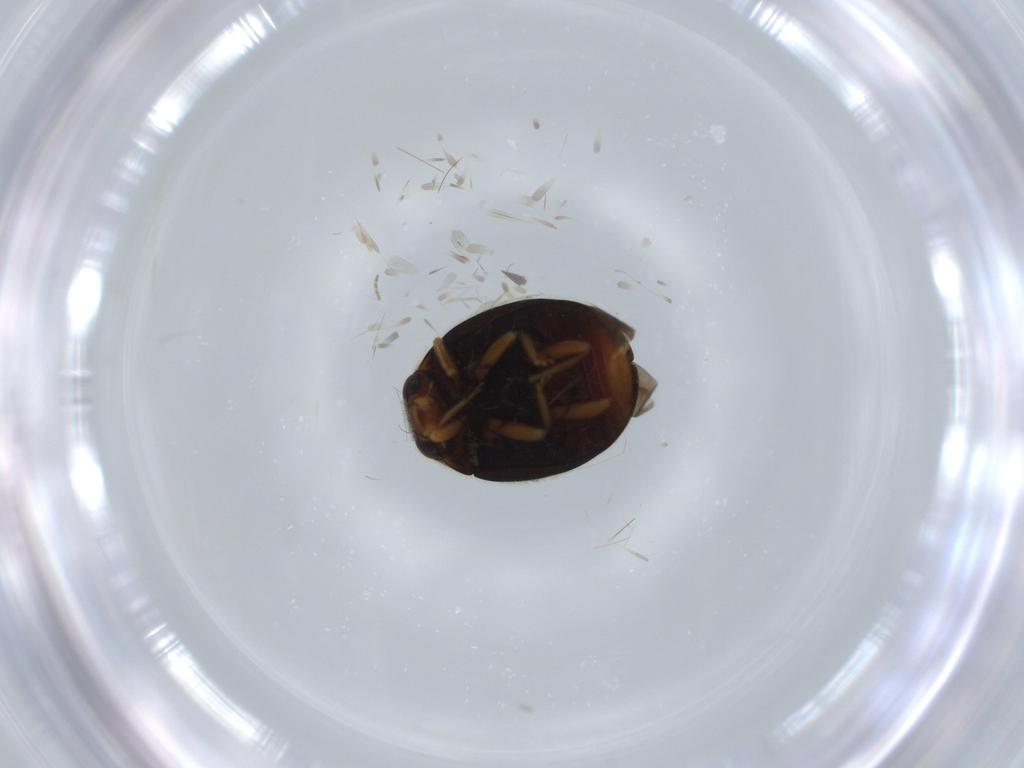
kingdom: Animalia
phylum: Arthropoda
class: Insecta
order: Coleoptera
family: Coccinellidae
